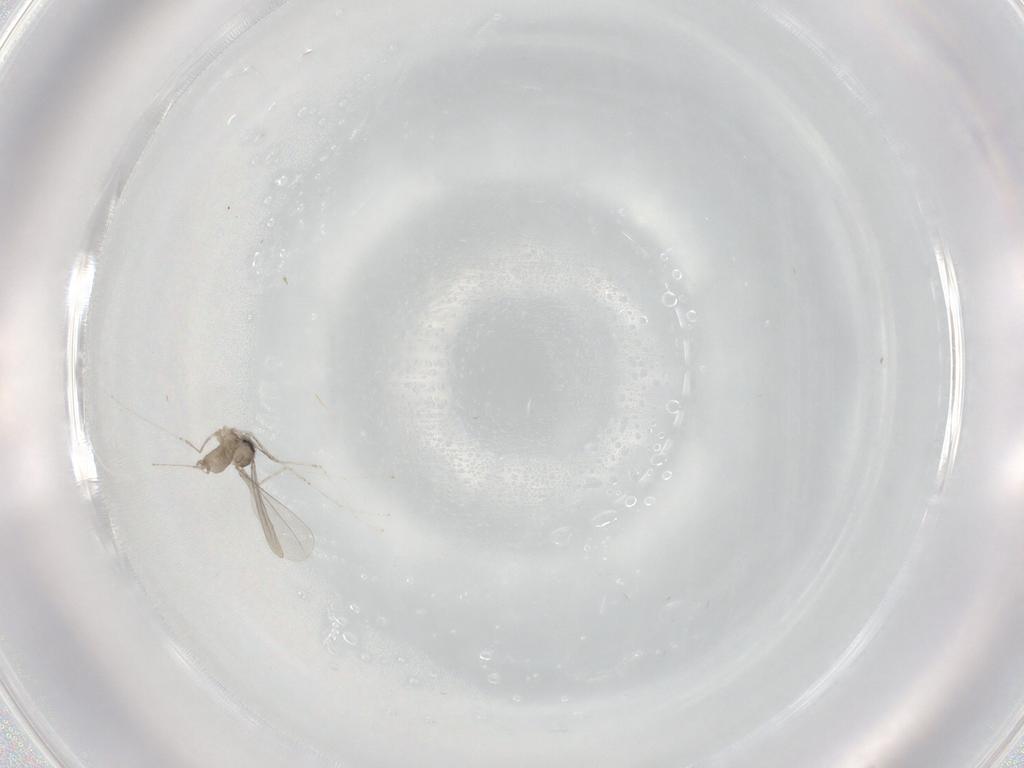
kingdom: Animalia
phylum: Arthropoda
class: Insecta
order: Diptera
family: Cecidomyiidae
